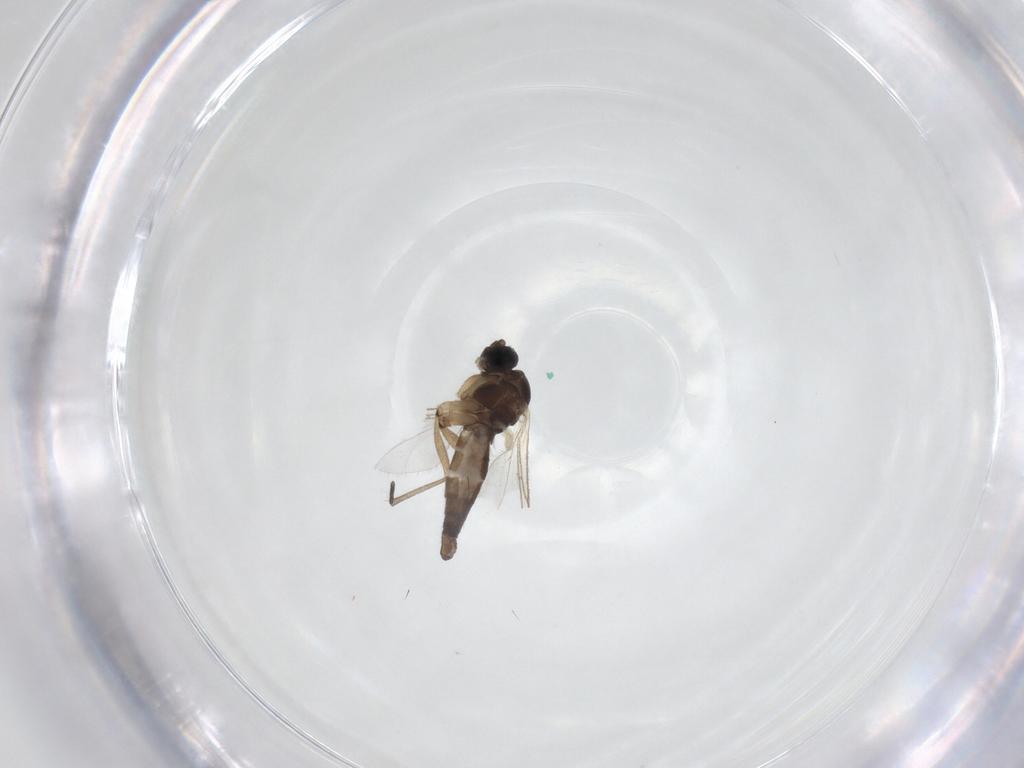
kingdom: Animalia
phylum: Arthropoda
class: Insecta
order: Diptera
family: Sciaridae
